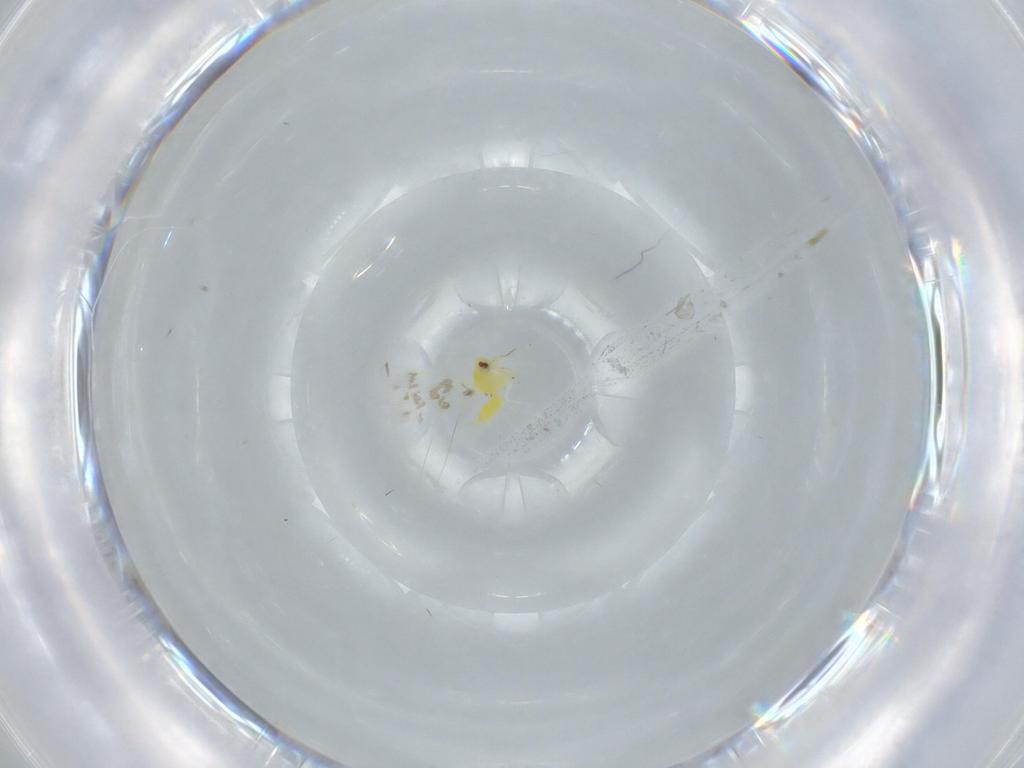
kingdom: Animalia
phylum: Arthropoda
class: Insecta
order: Hemiptera
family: Aleyrodidae
